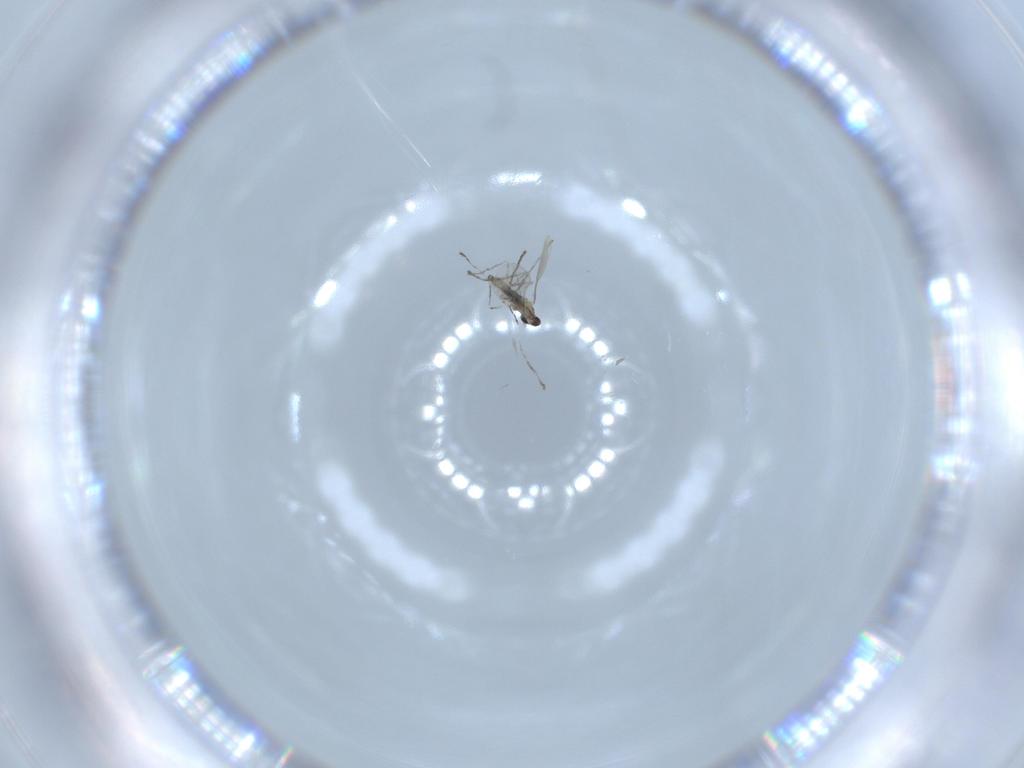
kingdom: Animalia
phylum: Arthropoda
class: Insecta
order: Diptera
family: Cecidomyiidae
